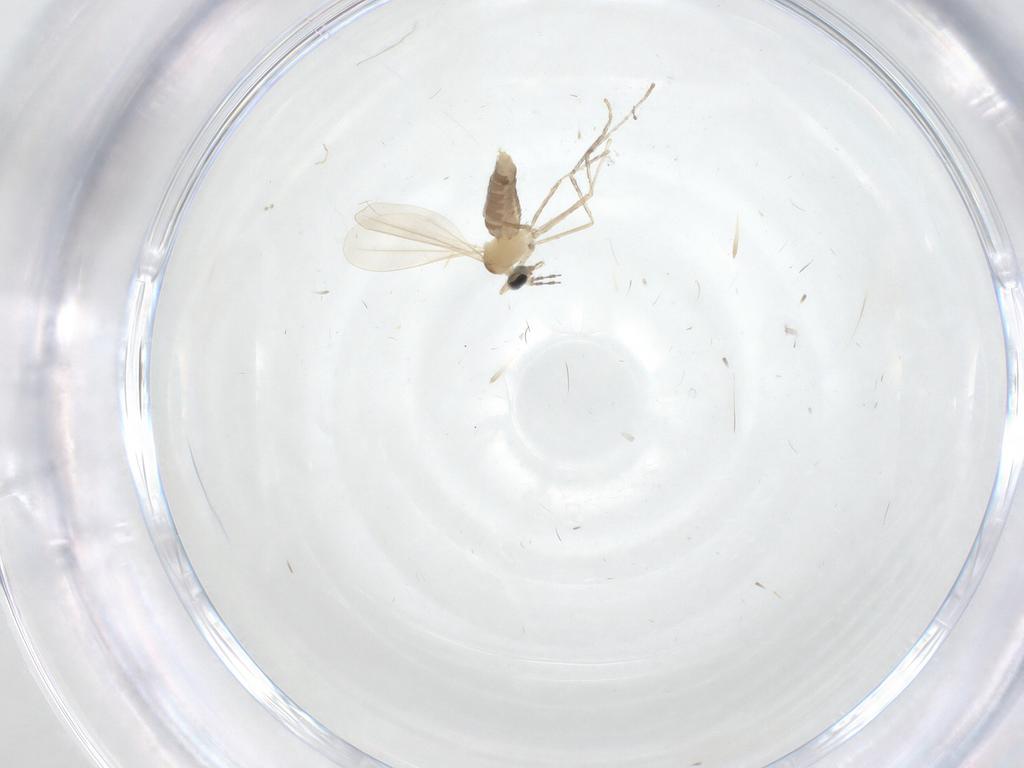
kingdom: Animalia
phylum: Arthropoda
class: Insecta
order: Diptera
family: Cecidomyiidae
